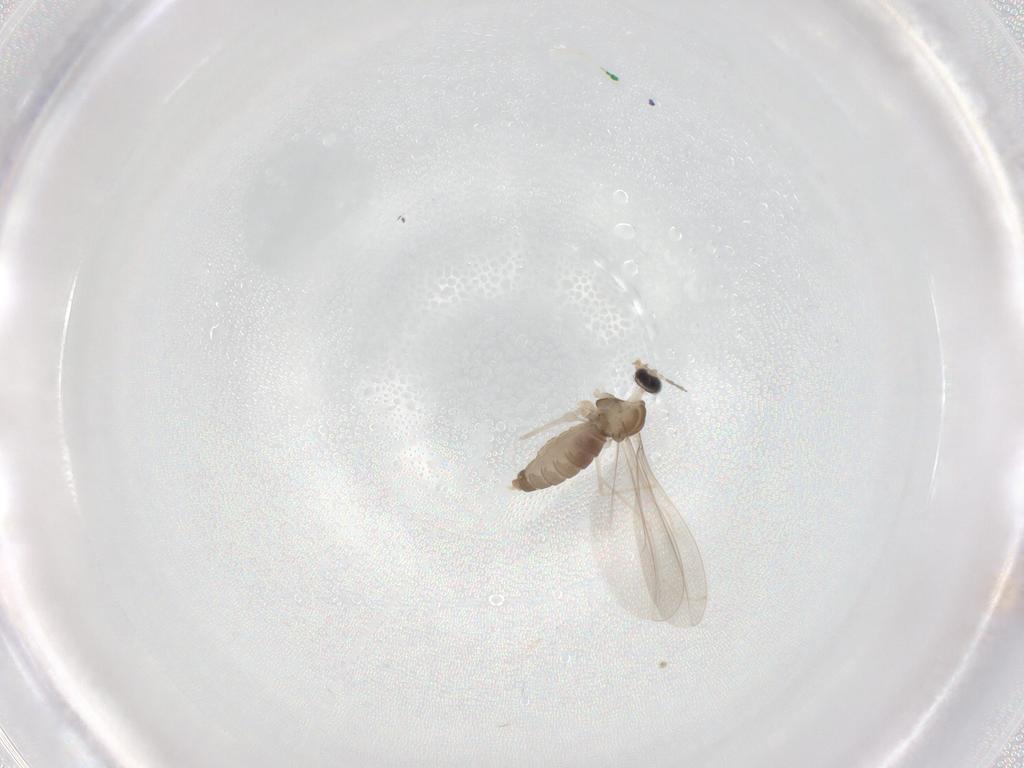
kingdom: Animalia
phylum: Arthropoda
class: Insecta
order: Diptera
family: Cecidomyiidae
